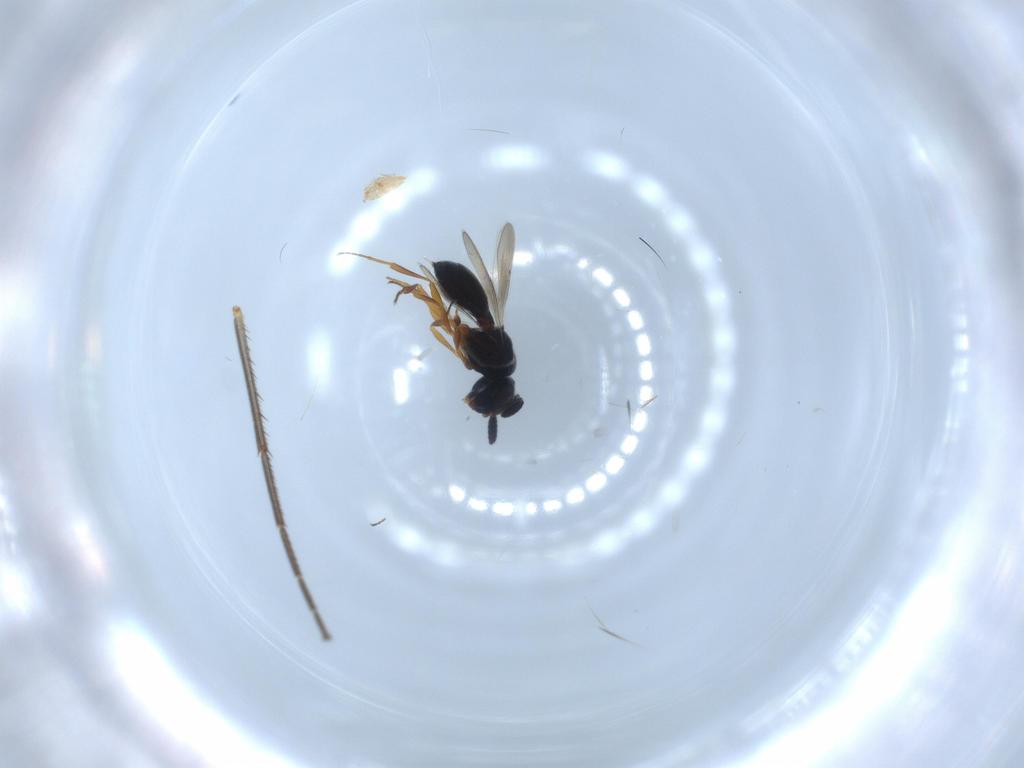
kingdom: Animalia
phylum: Arthropoda
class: Insecta
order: Hymenoptera
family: Scelionidae
